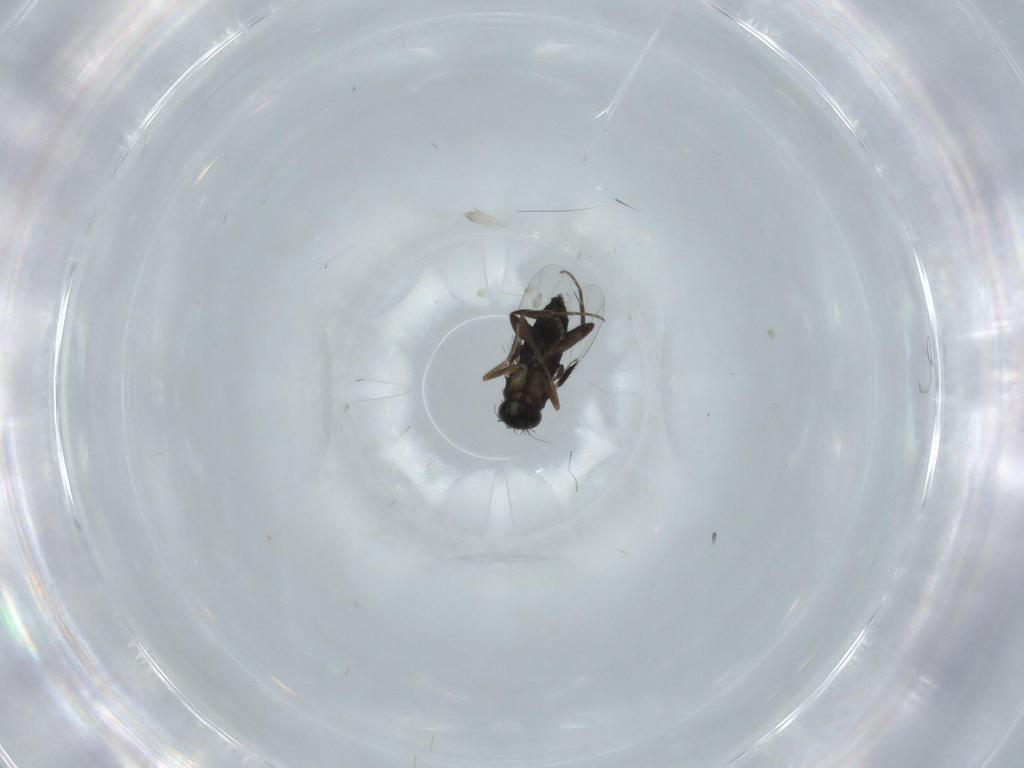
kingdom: Animalia
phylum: Arthropoda
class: Insecta
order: Diptera
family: Phoridae
